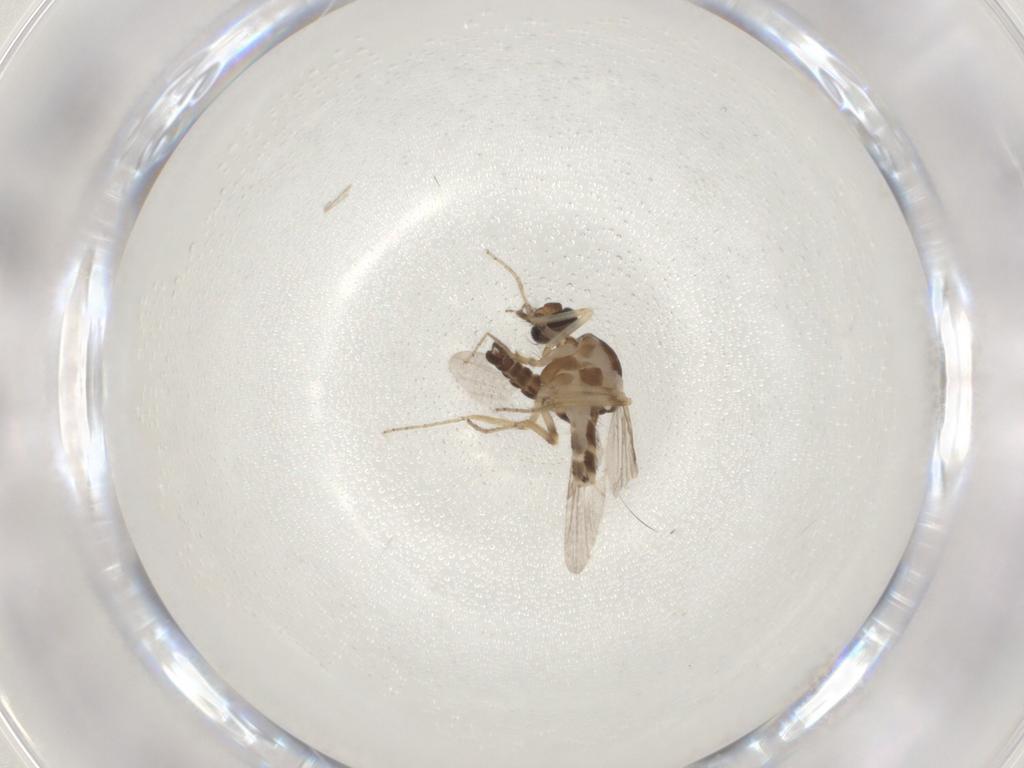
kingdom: Animalia
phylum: Arthropoda
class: Insecta
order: Diptera
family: Ceratopogonidae
